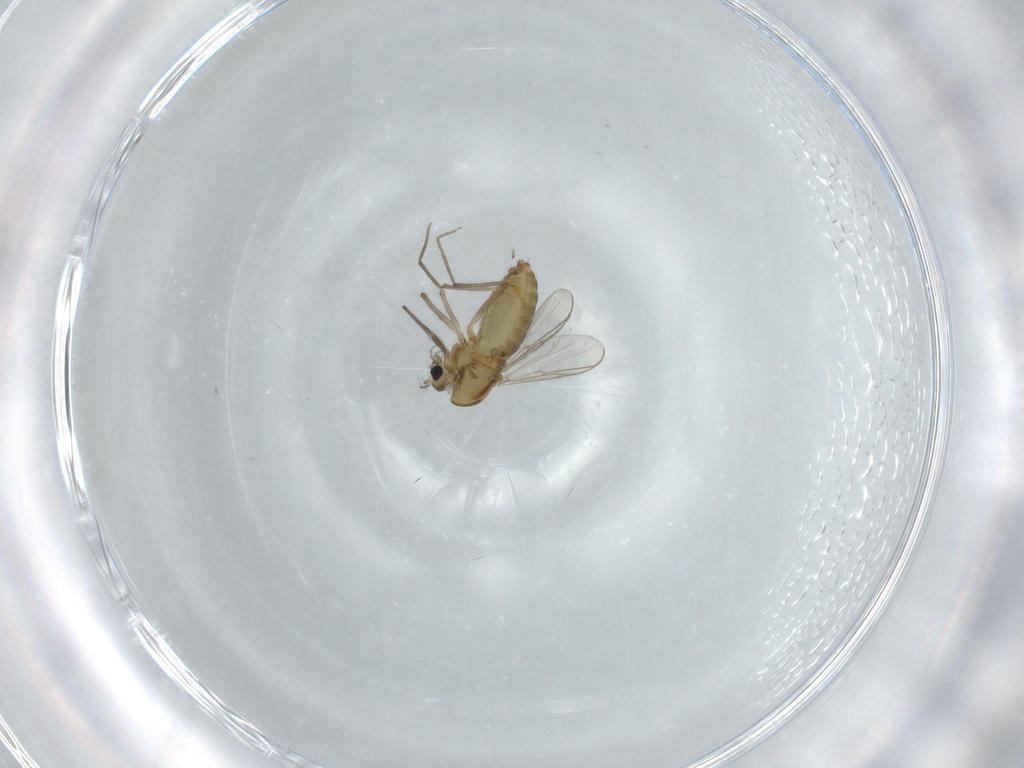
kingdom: Animalia
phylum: Arthropoda
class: Insecta
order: Diptera
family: Chironomidae
